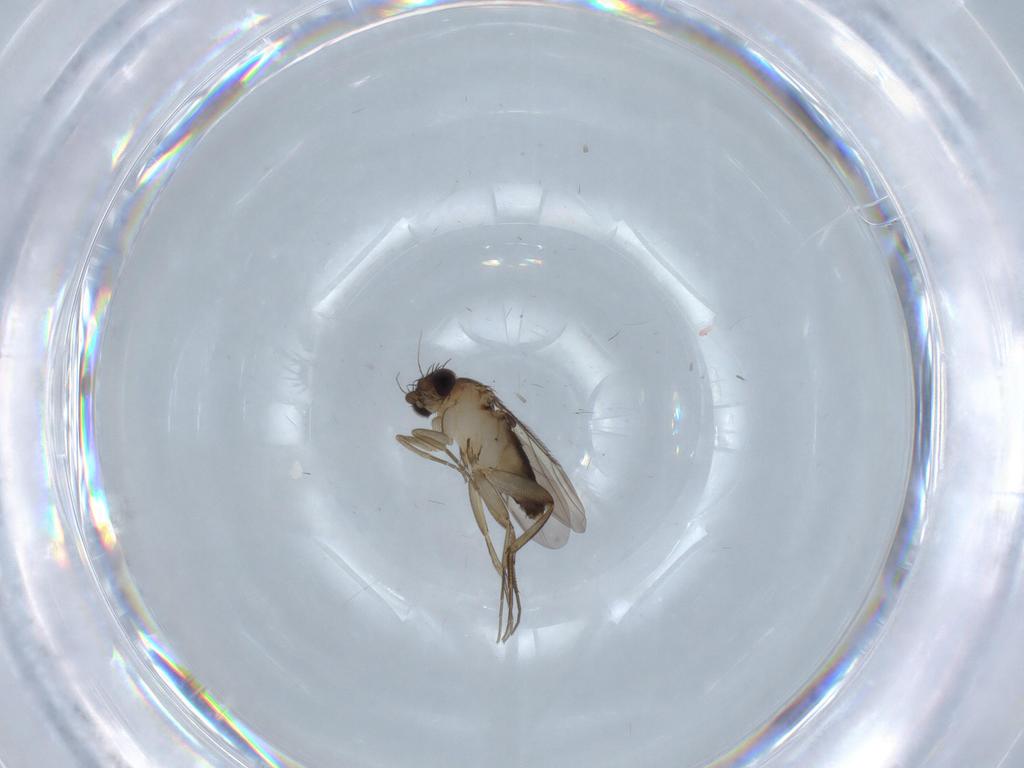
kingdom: Animalia
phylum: Arthropoda
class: Insecta
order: Diptera
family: Phoridae
